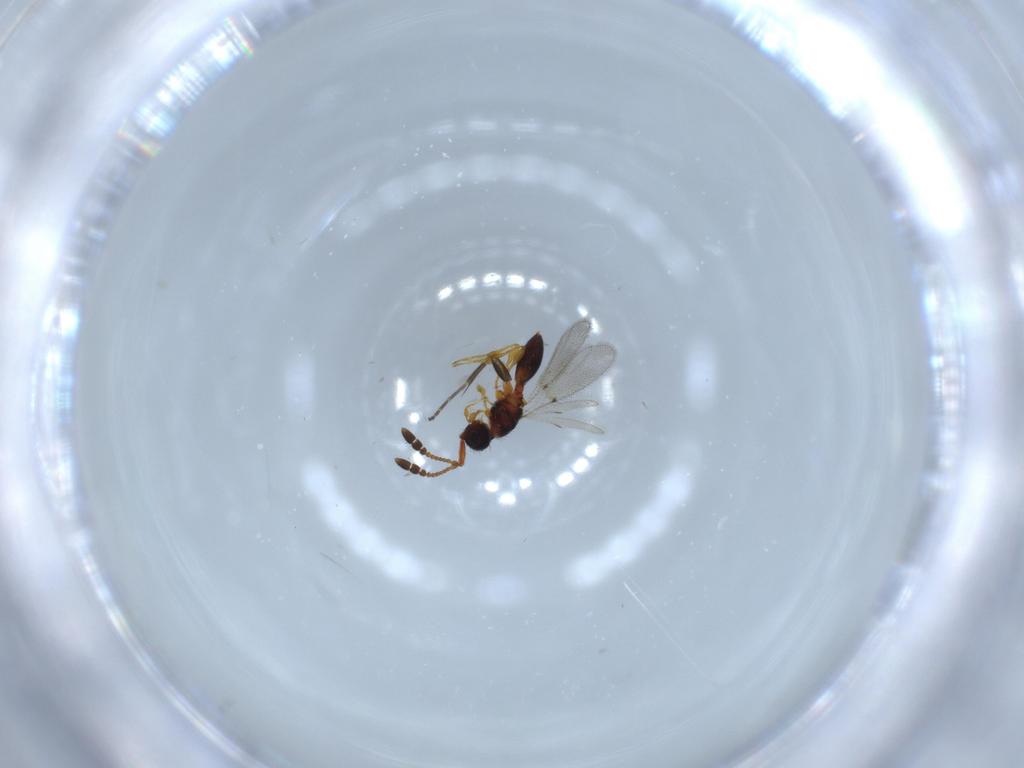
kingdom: Animalia
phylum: Arthropoda
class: Insecta
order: Hymenoptera
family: Diapriidae
